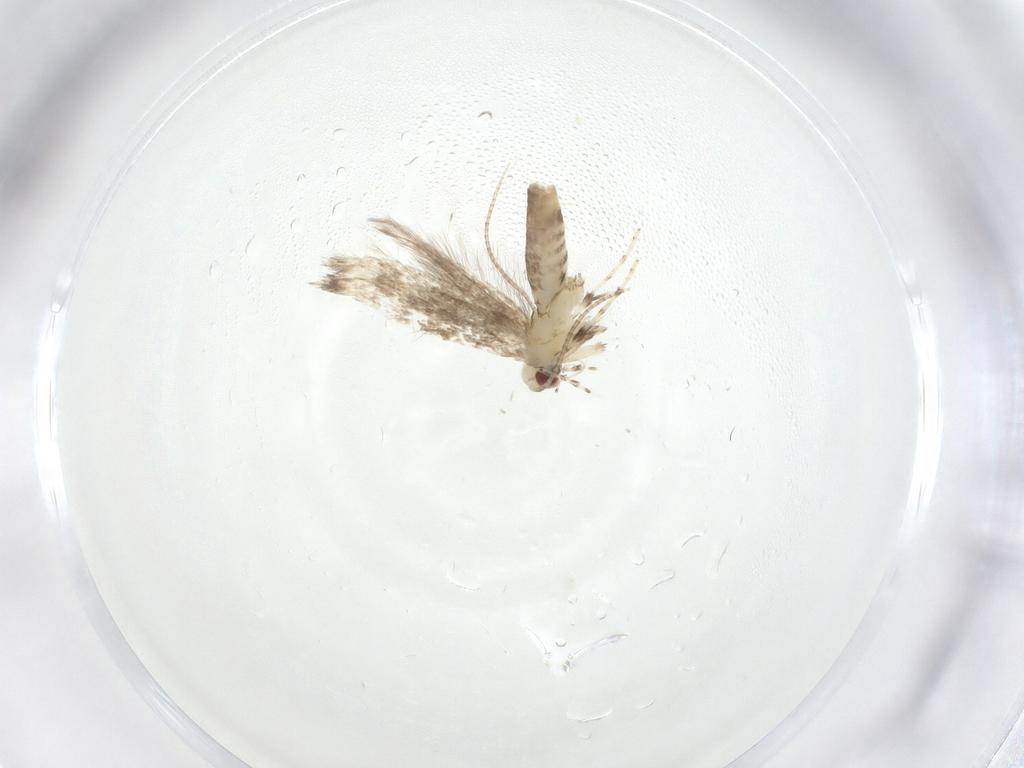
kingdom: Animalia
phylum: Arthropoda
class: Insecta
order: Lepidoptera
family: Gracillariidae
